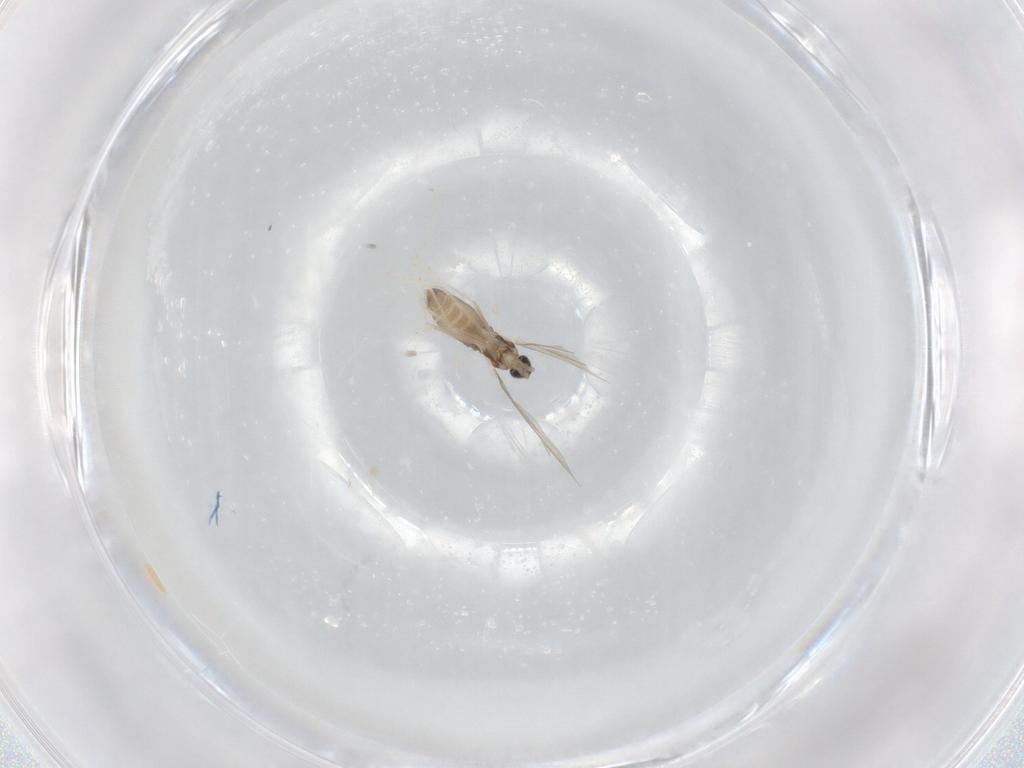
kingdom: Animalia
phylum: Arthropoda
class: Insecta
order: Diptera
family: Cecidomyiidae
